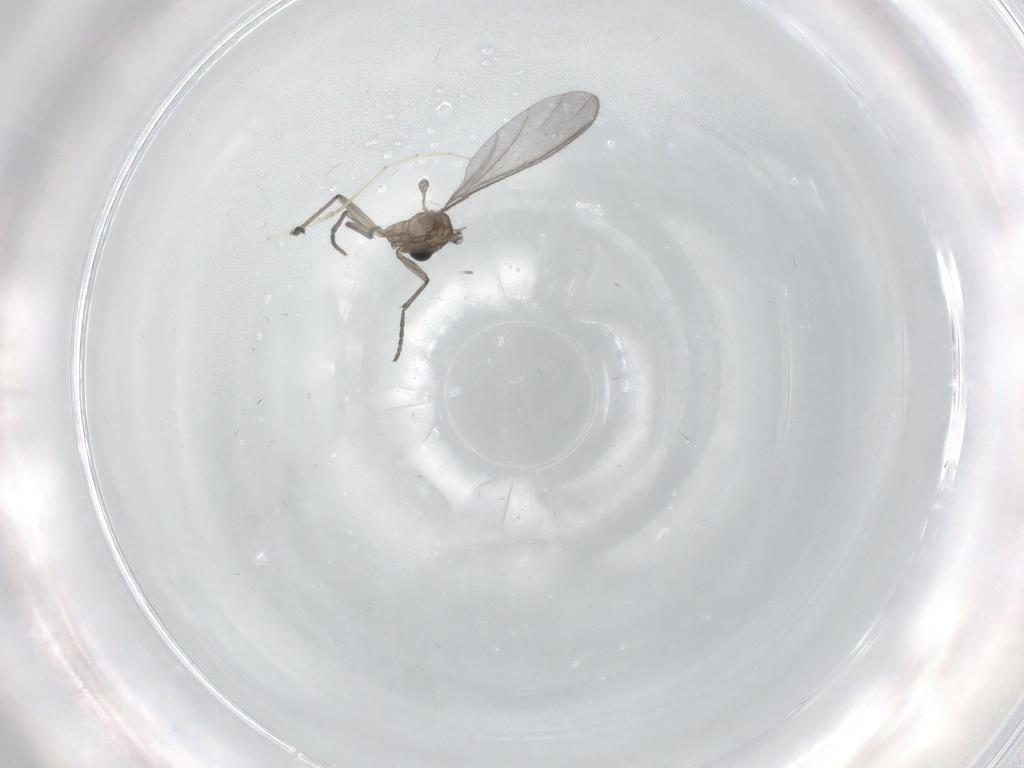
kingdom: Animalia
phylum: Arthropoda
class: Insecta
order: Diptera
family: Sciaridae
